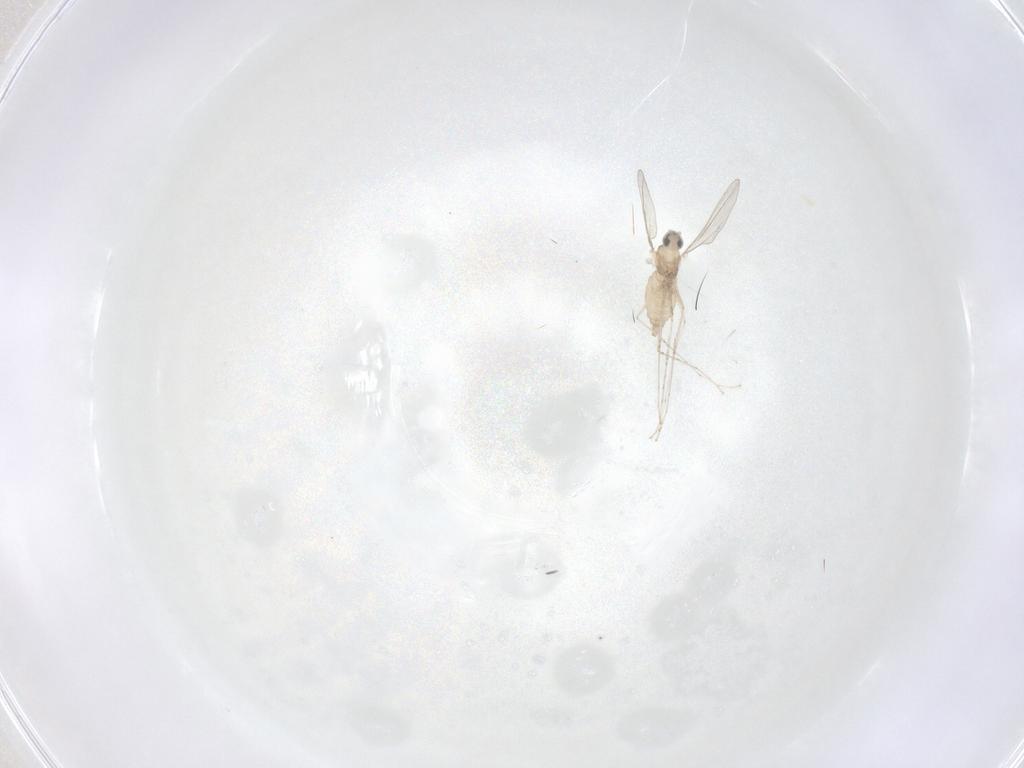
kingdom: Animalia
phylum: Arthropoda
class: Insecta
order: Diptera
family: Cecidomyiidae
